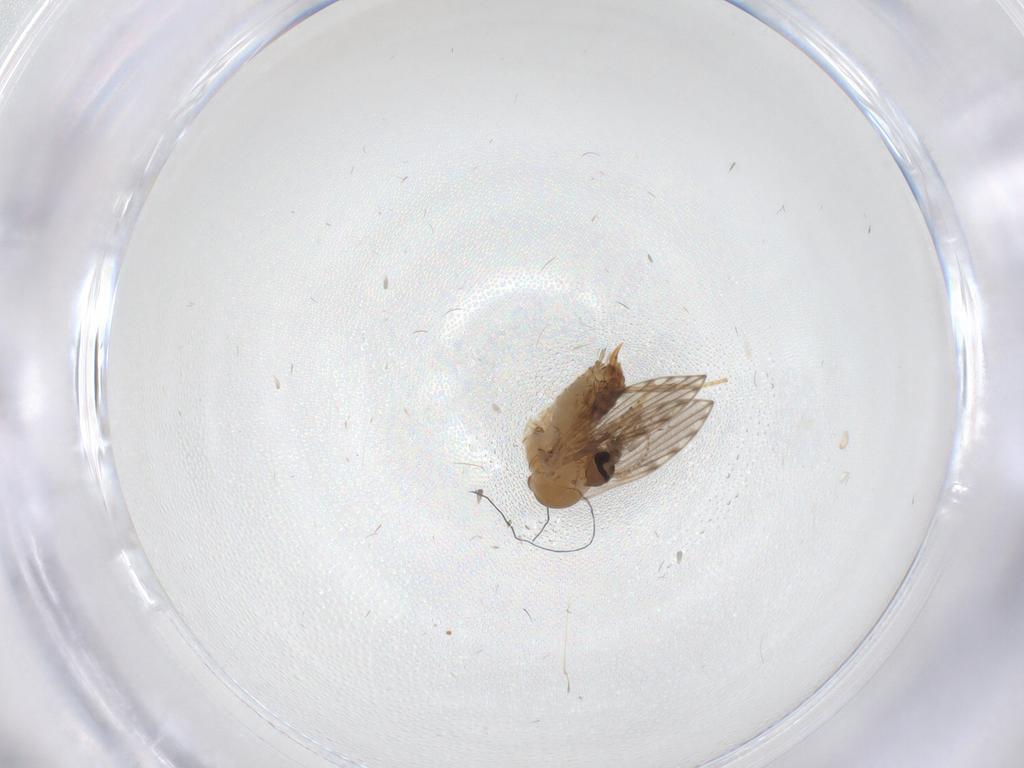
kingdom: Animalia
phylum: Arthropoda
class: Insecta
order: Diptera
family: Psychodidae
